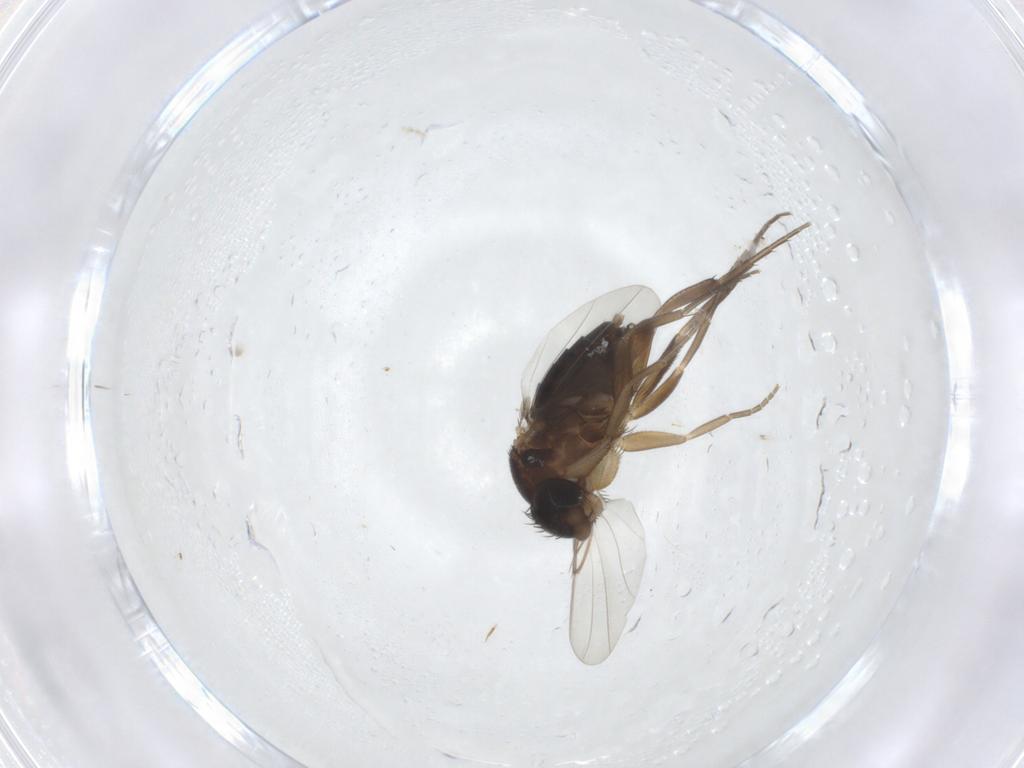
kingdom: Animalia
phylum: Arthropoda
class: Insecta
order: Diptera
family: Phoridae
